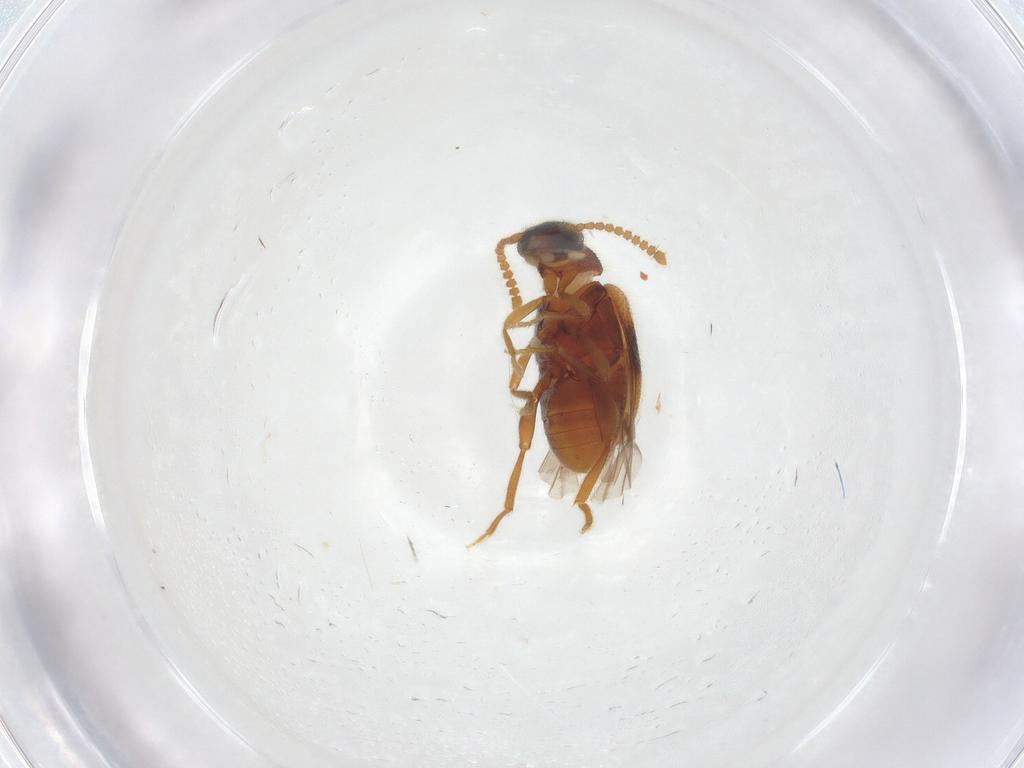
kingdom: Animalia
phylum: Arthropoda
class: Insecta
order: Coleoptera
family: Aderidae
